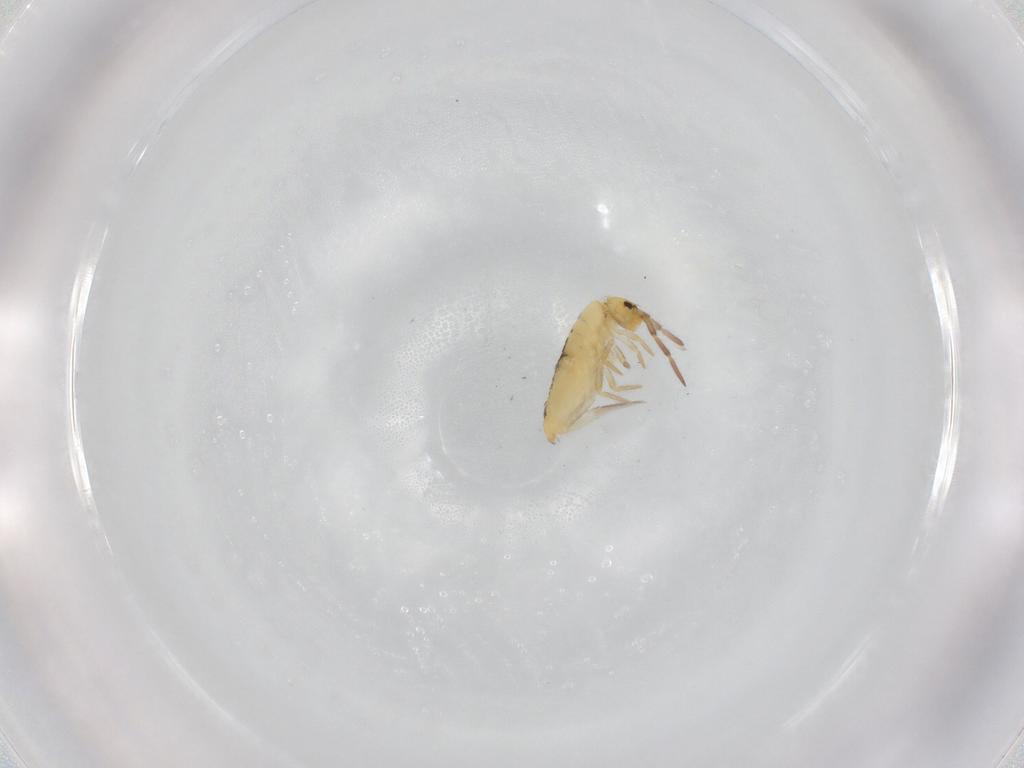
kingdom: Animalia
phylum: Arthropoda
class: Collembola
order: Entomobryomorpha
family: Entomobryidae
